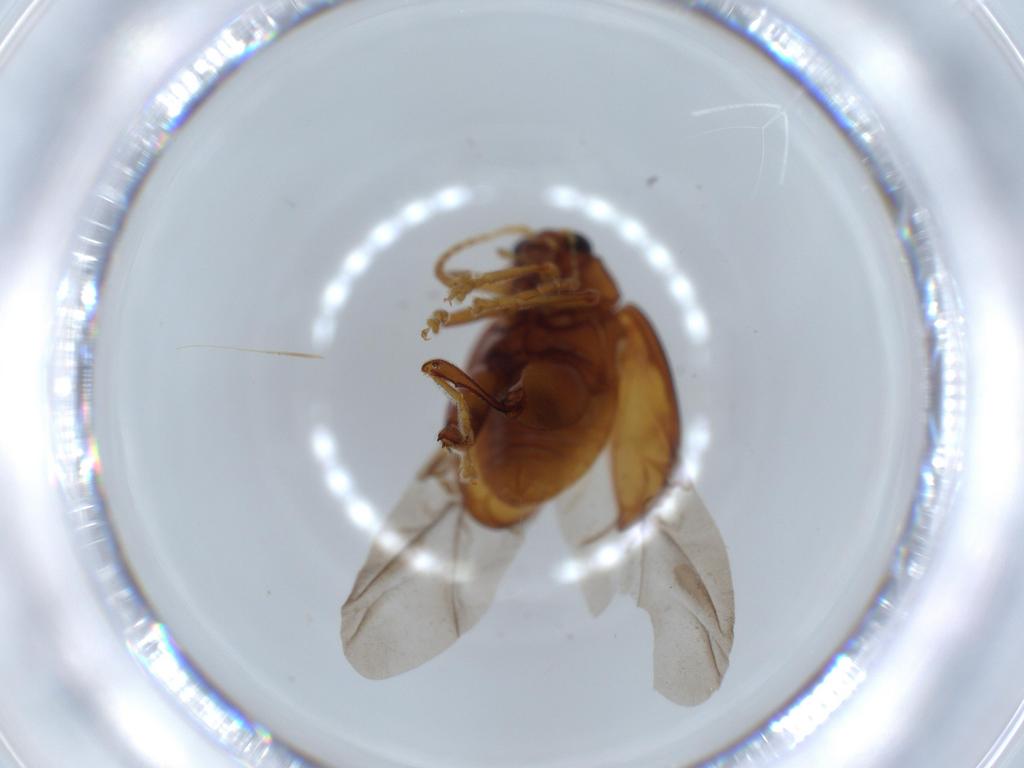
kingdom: Animalia
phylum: Arthropoda
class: Insecta
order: Coleoptera
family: Chrysomelidae
